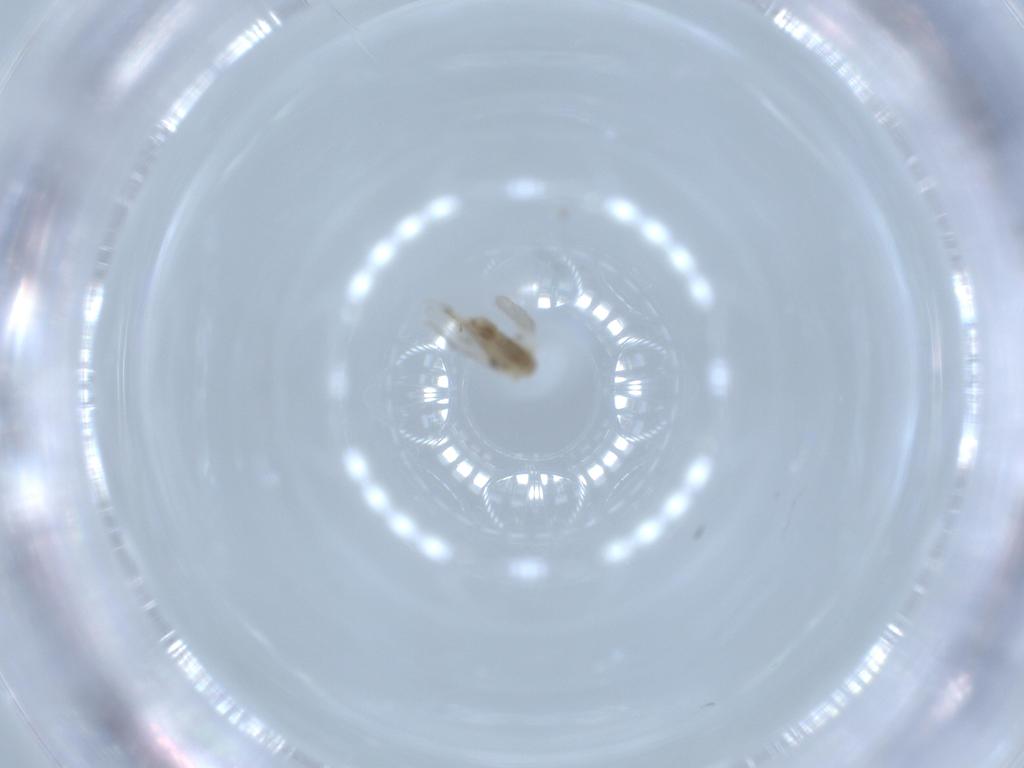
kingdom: Animalia
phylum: Arthropoda
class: Insecta
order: Diptera
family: Psychodidae
